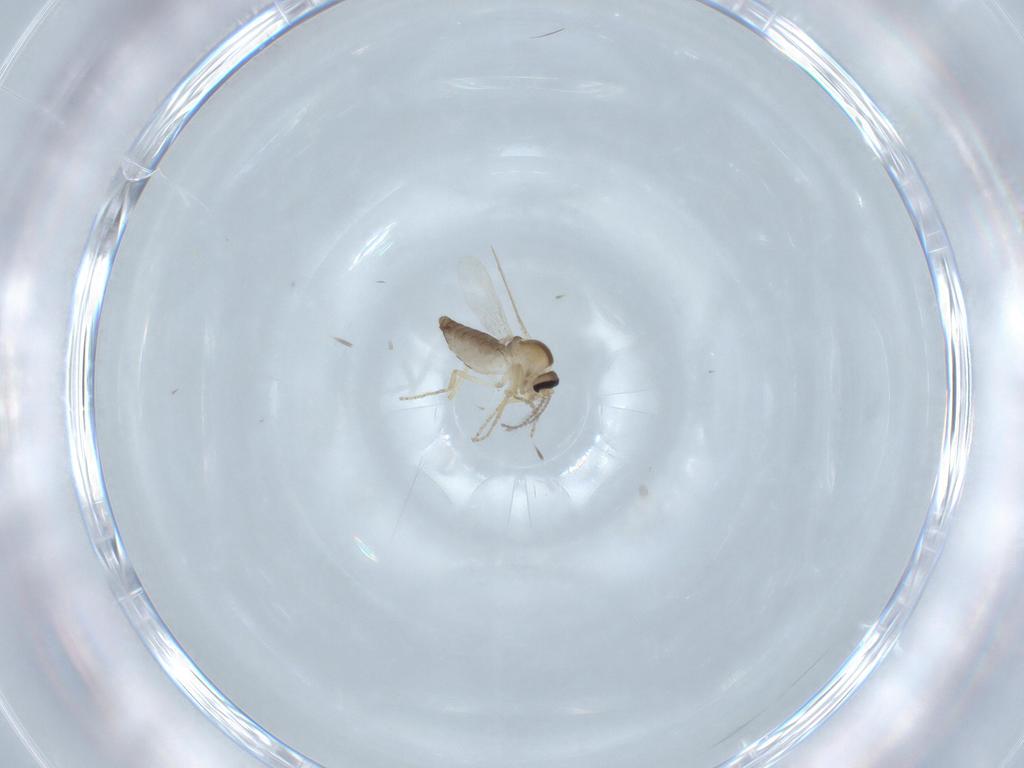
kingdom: Animalia
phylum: Arthropoda
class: Insecta
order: Diptera
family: Ceratopogonidae
